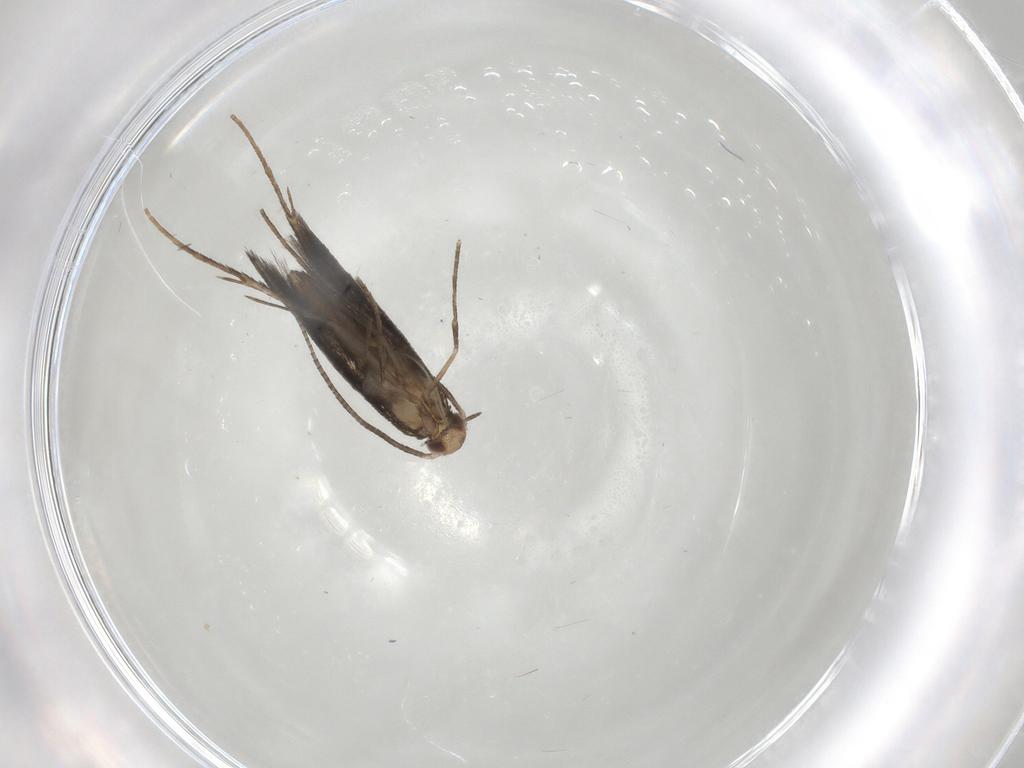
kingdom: Animalia
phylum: Arthropoda
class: Insecta
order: Lepidoptera
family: Gracillariidae
